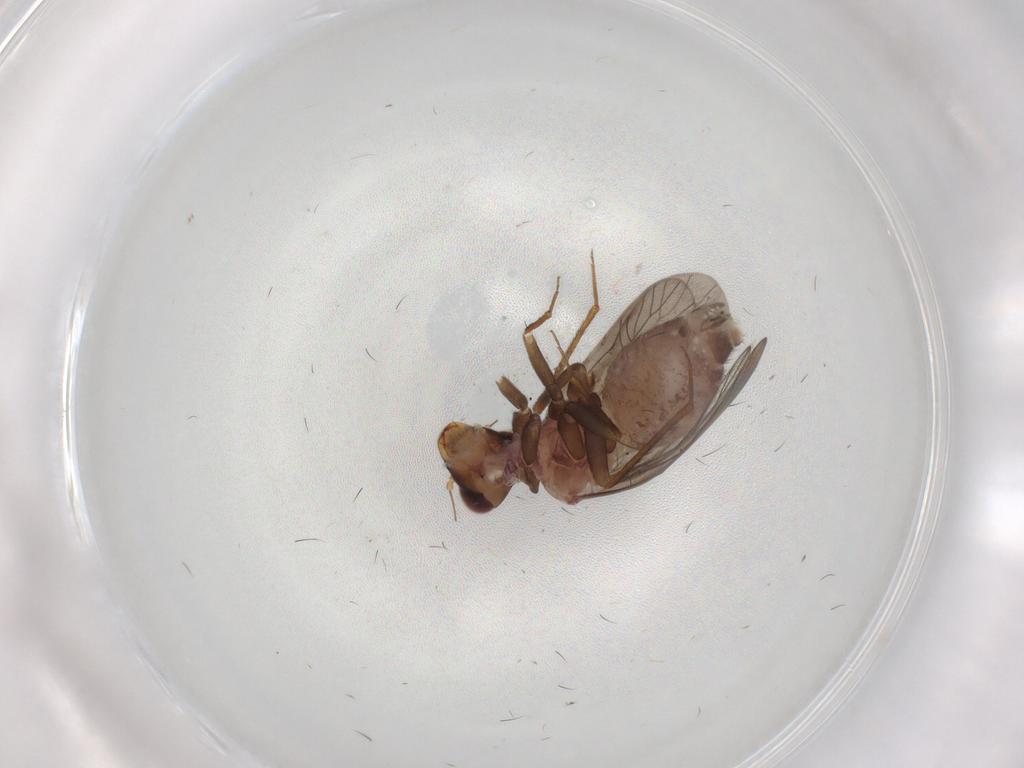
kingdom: Animalia
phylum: Arthropoda
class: Insecta
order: Psocodea
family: Lepidopsocidae
